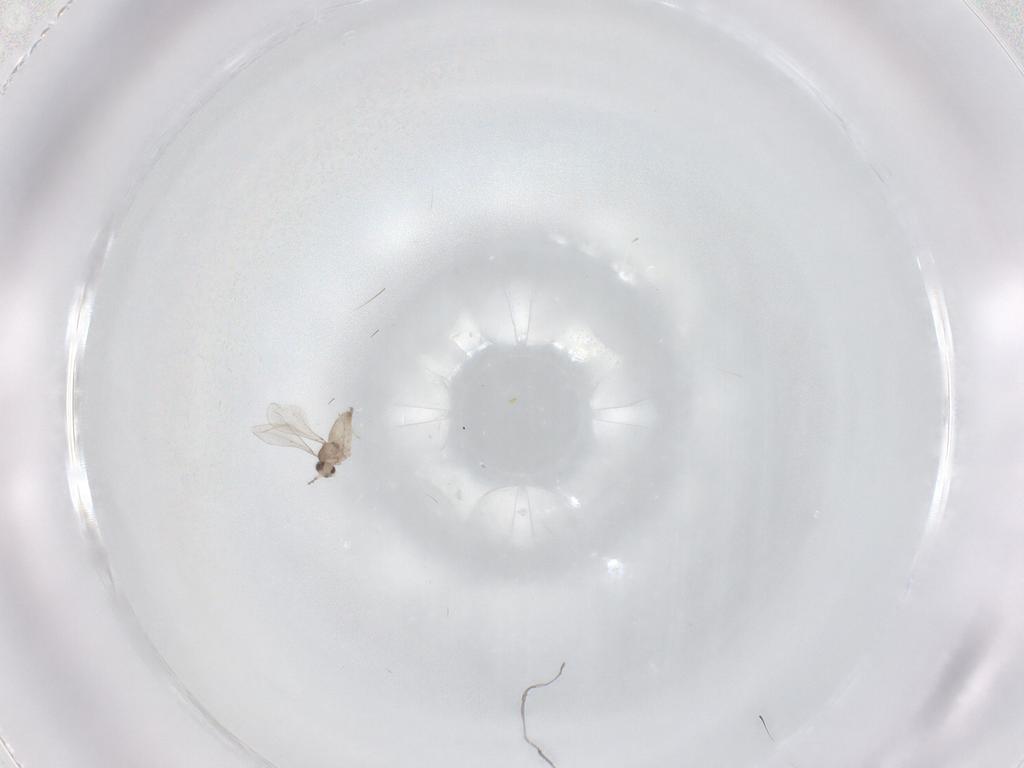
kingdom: Animalia
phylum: Arthropoda
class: Insecta
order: Diptera
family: Cecidomyiidae
